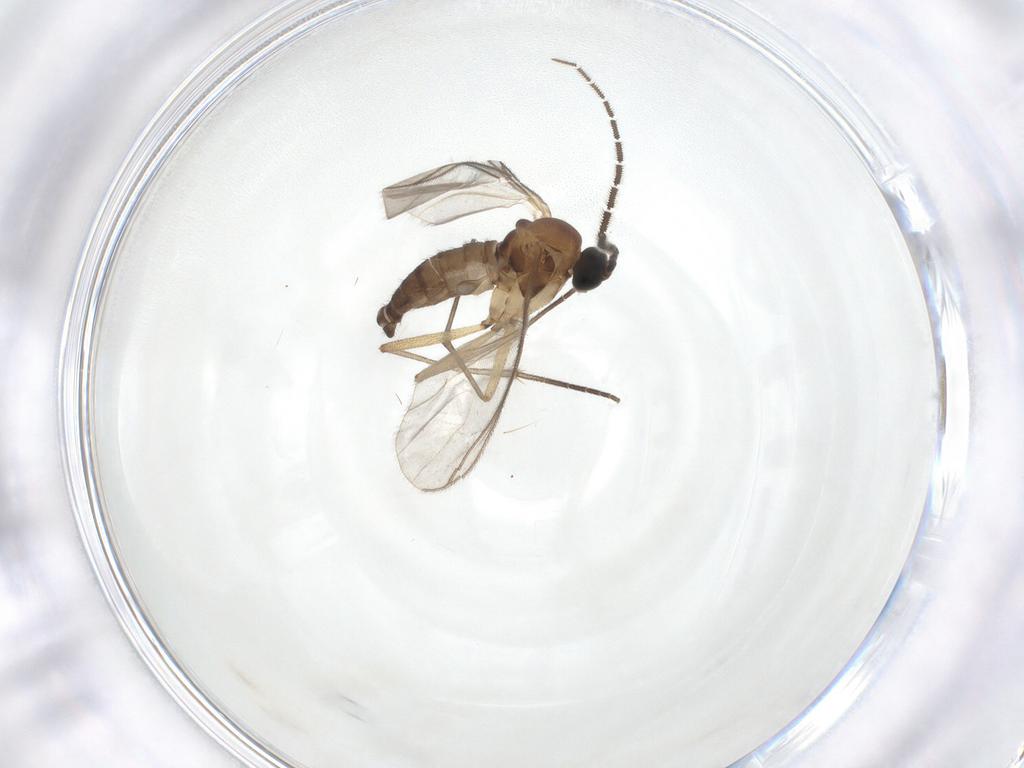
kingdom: Animalia
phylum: Arthropoda
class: Insecta
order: Diptera
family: Sciaridae
